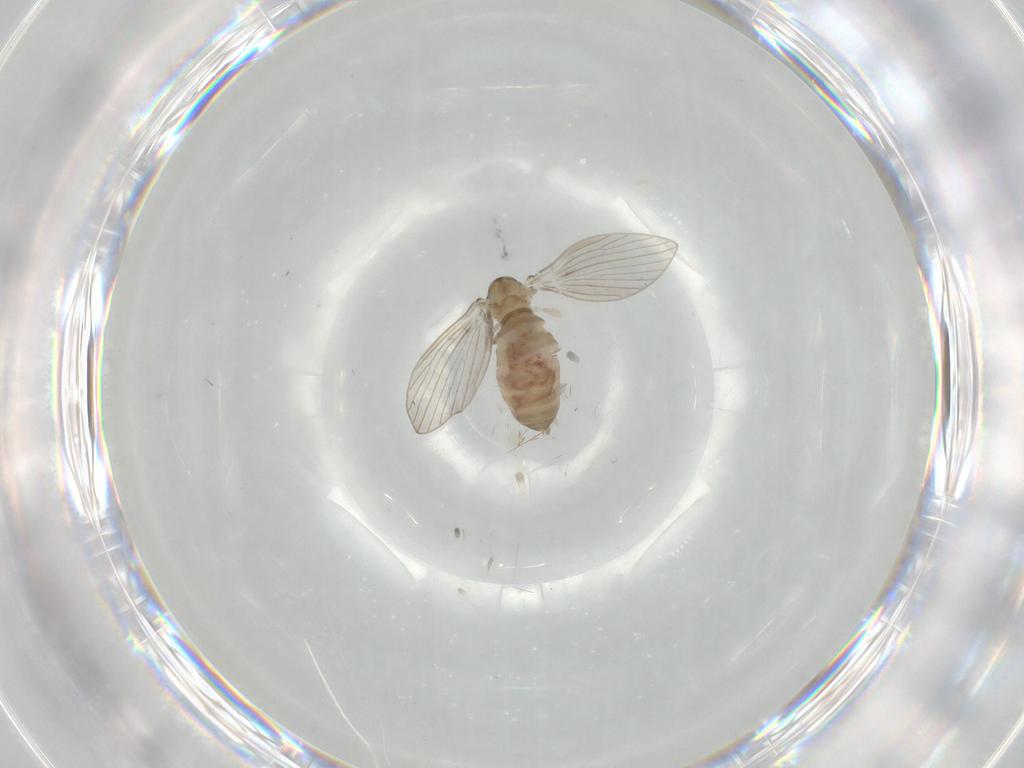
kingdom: Animalia
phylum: Arthropoda
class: Insecta
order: Diptera
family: Psychodidae
